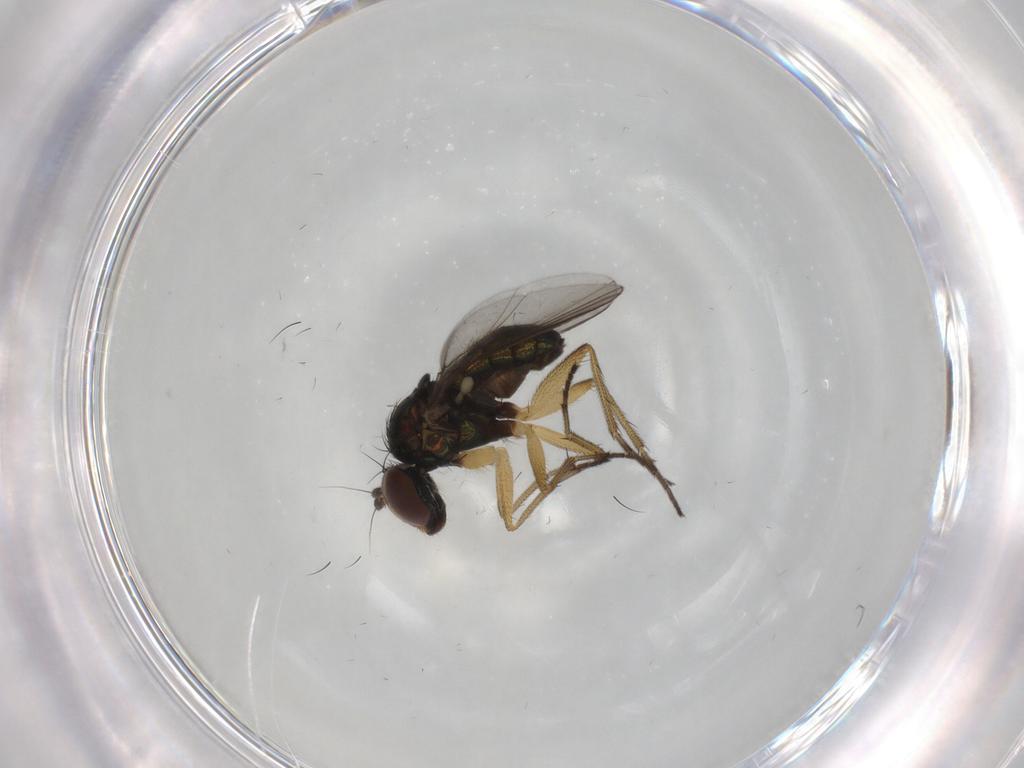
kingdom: Animalia
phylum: Arthropoda
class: Insecta
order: Diptera
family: Dolichopodidae
